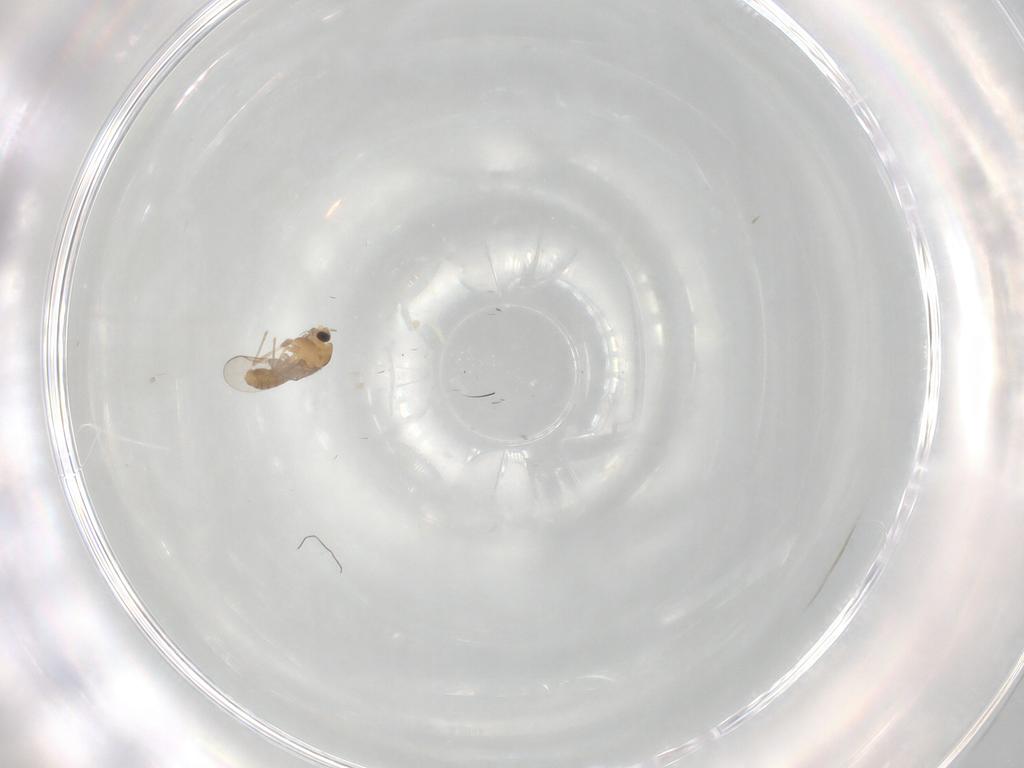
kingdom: Animalia
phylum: Arthropoda
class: Insecta
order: Diptera
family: Chironomidae
